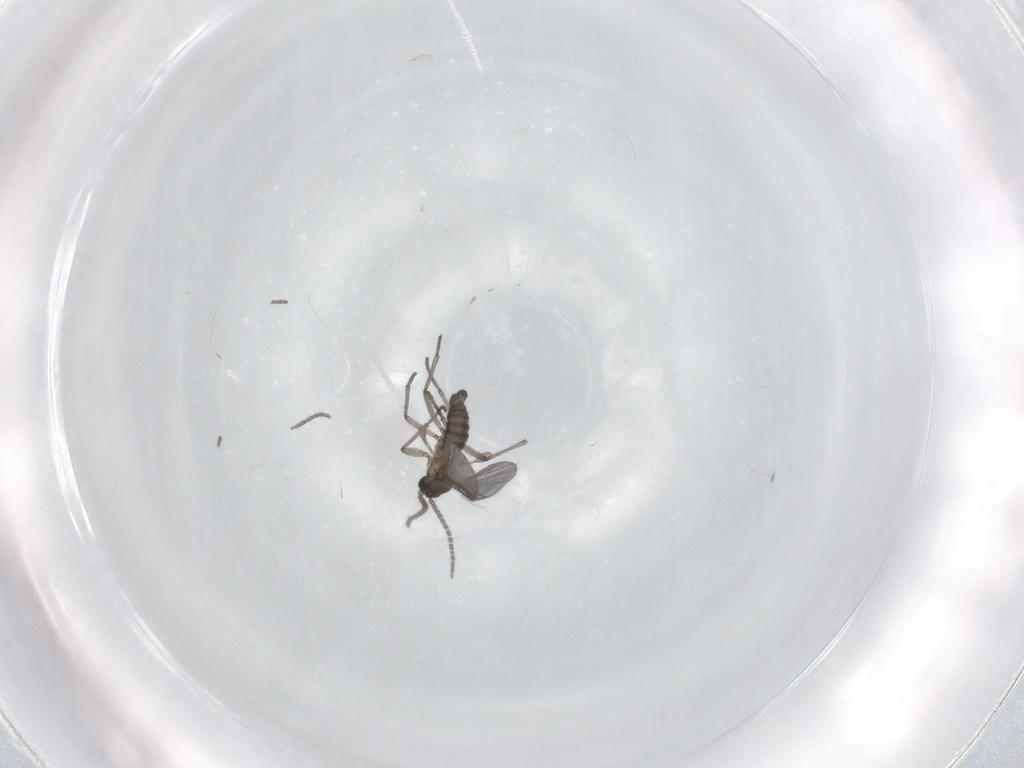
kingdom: Animalia
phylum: Arthropoda
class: Insecta
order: Diptera
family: Sciaridae
